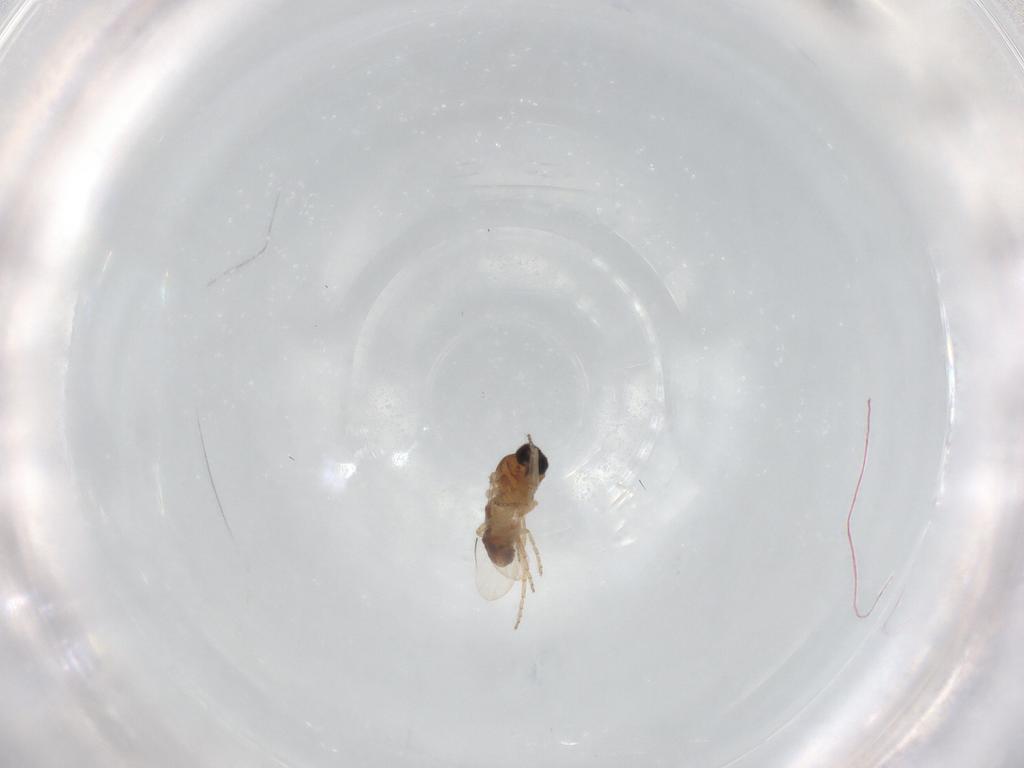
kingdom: Animalia
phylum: Arthropoda
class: Insecta
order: Diptera
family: Ceratopogonidae
